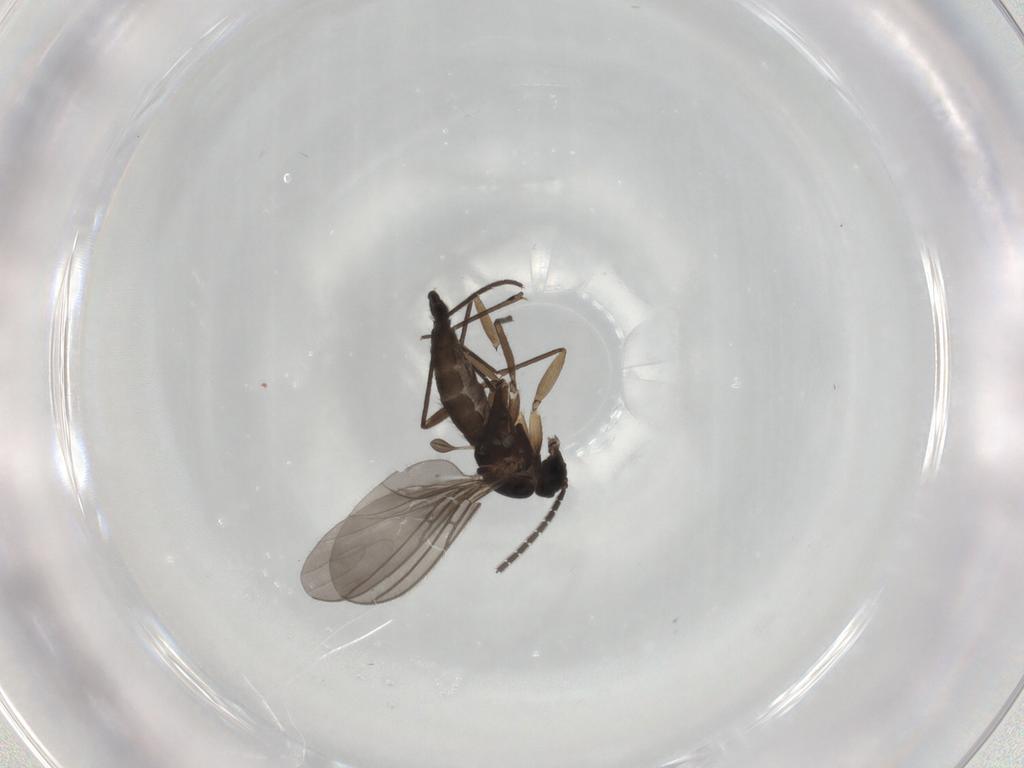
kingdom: Animalia
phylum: Arthropoda
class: Insecta
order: Diptera
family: Sciaridae
